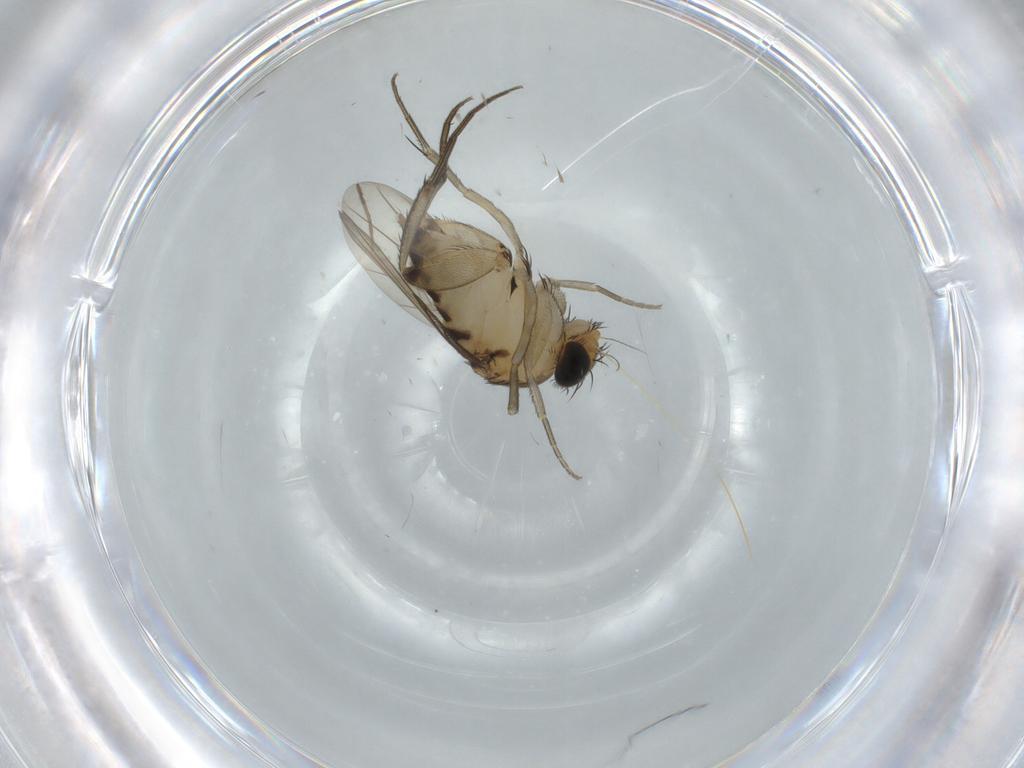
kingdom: Animalia
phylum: Arthropoda
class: Insecta
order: Diptera
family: Phoridae
